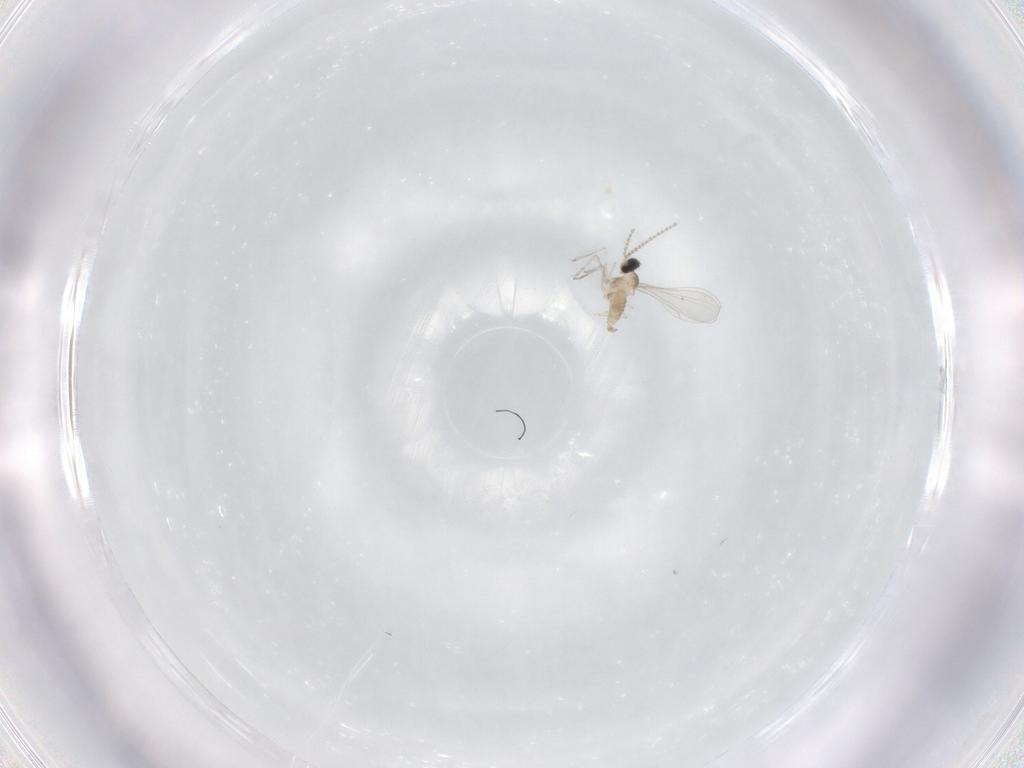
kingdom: Animalia
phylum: Arthropoda
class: Insecta
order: Diptera
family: Cecidomyiidae
